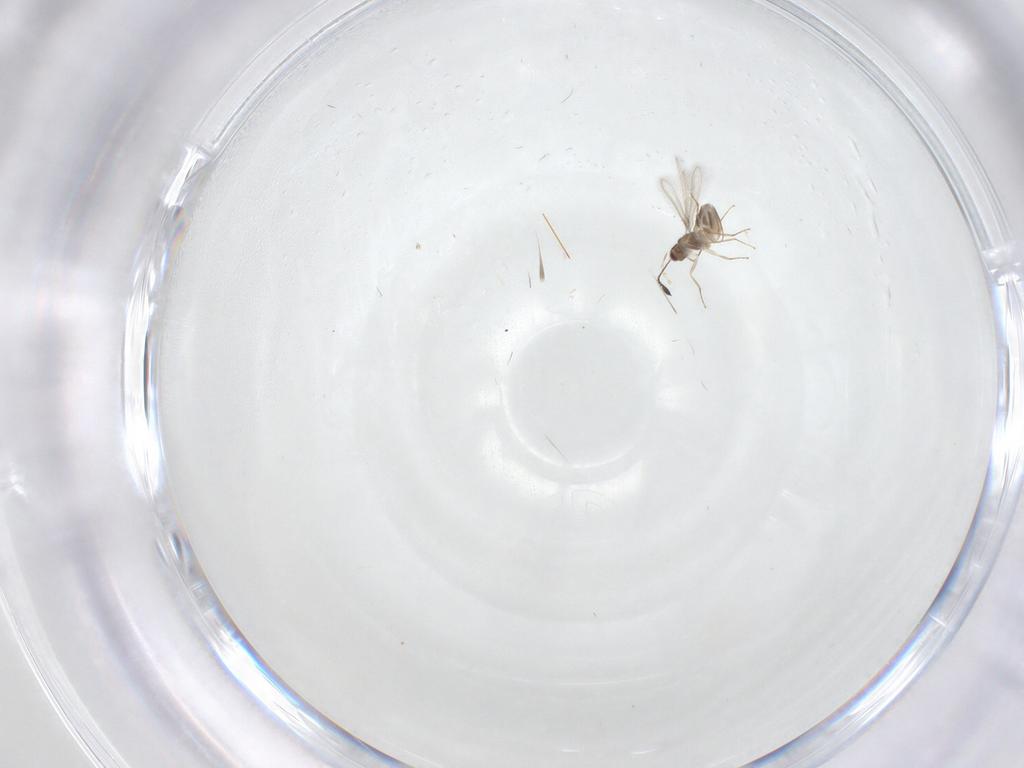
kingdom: Animalia
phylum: Arthropoda
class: Insecta
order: Hymenoptera
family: Mymaridae
